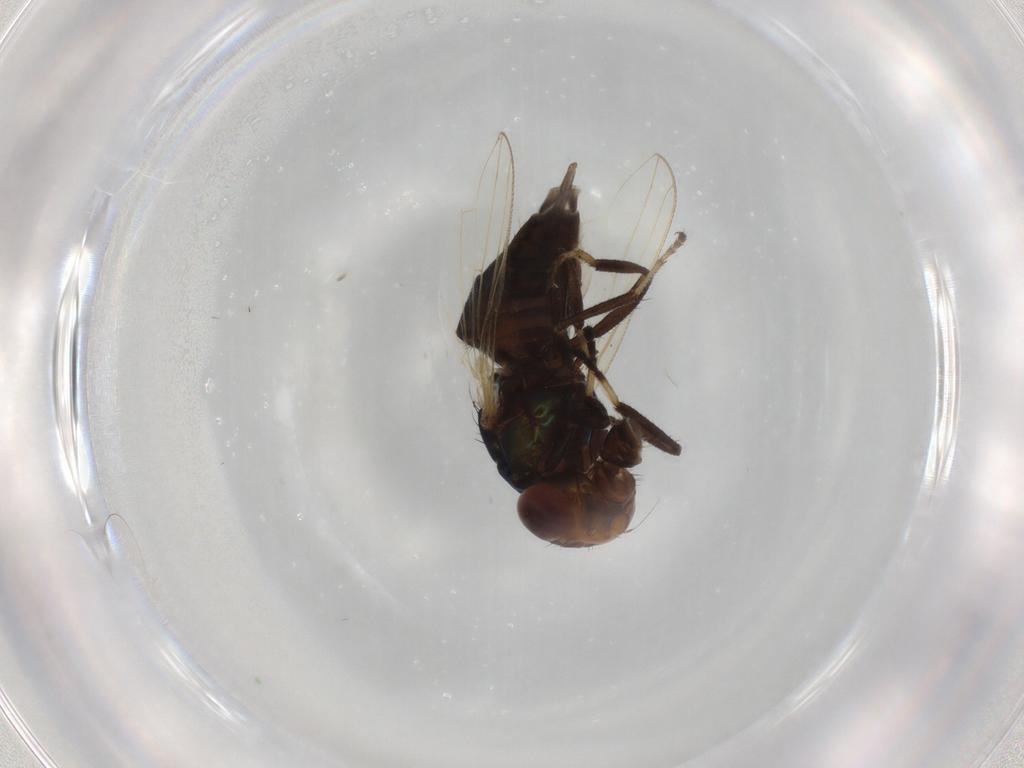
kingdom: Animalia
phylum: Arthropoda
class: Insecta
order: Diptera
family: Ulidiidae
